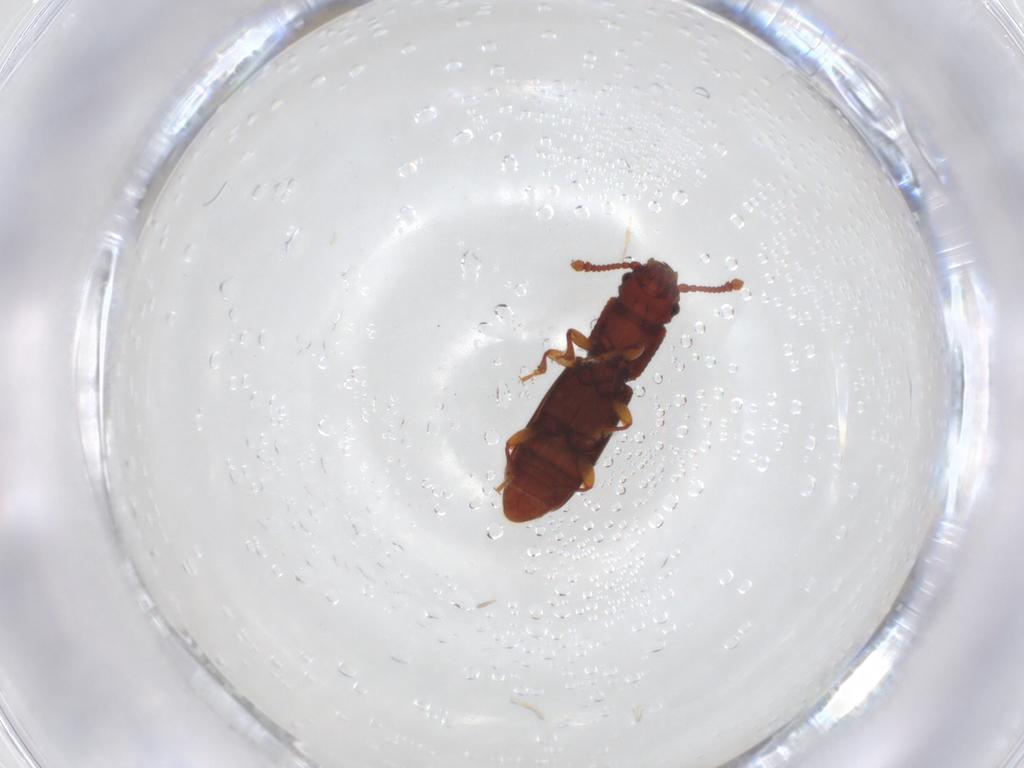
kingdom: Animalia
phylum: Arthropoda
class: Insecta
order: Coleoptera
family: Monotomidae
